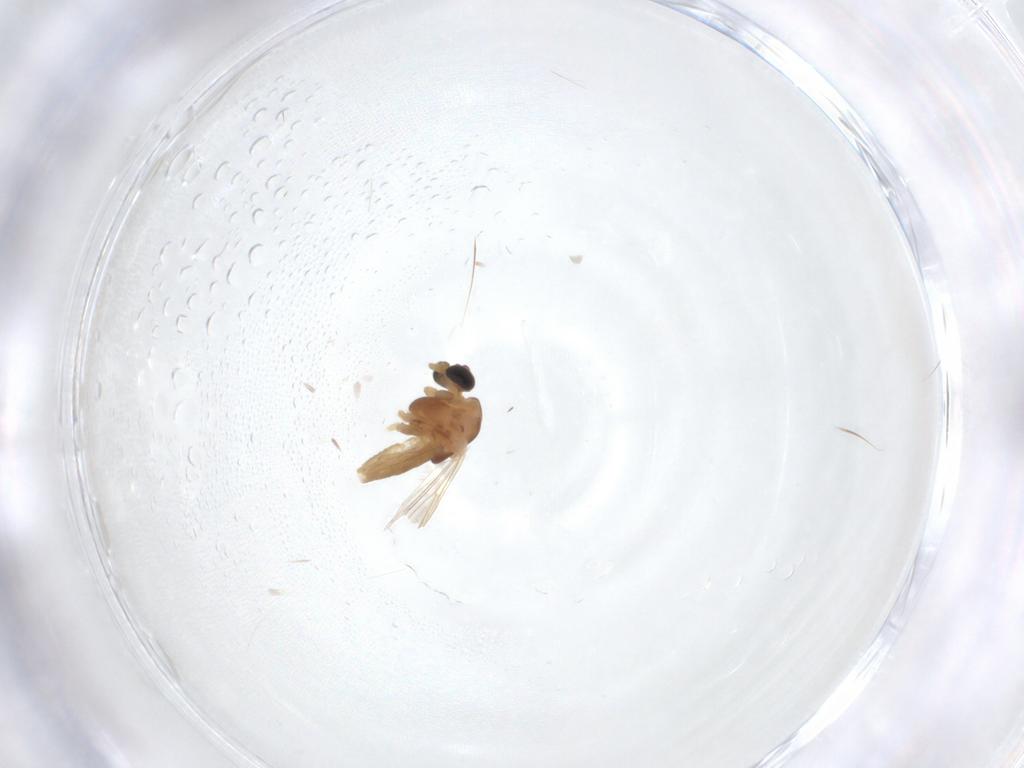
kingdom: Animalia
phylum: Arthropoda
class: Insecta
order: Diptera
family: Chironomidae
